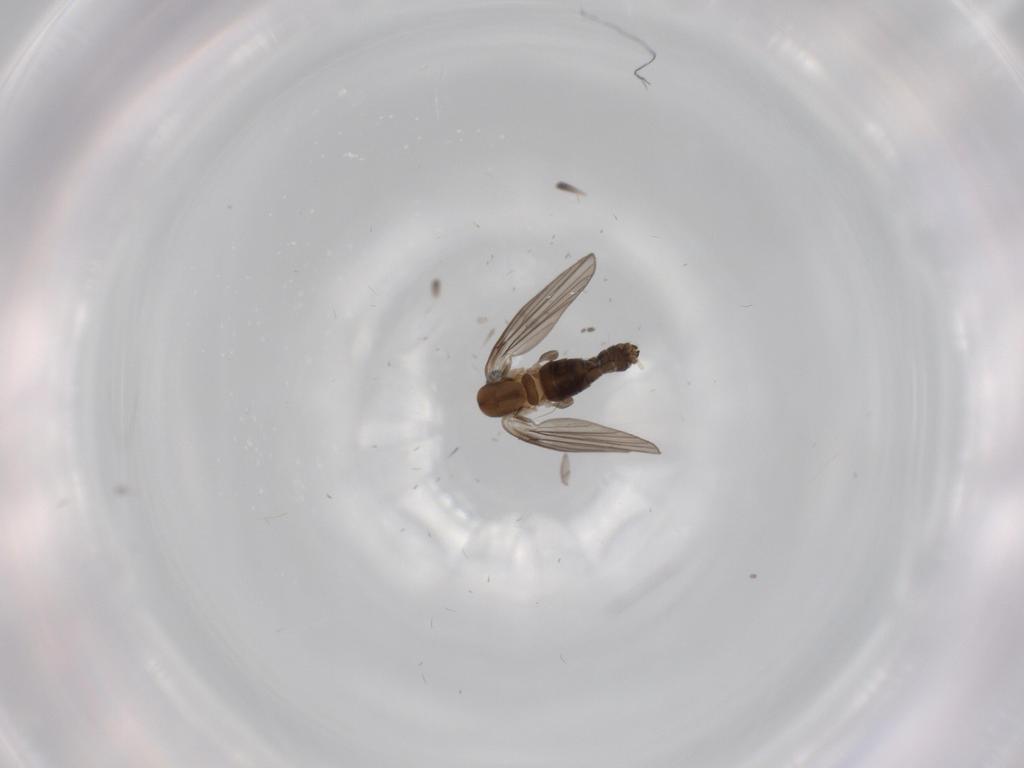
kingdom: Animalia
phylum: Arthropoda
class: Insecta
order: Diptera
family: Psychodidae
